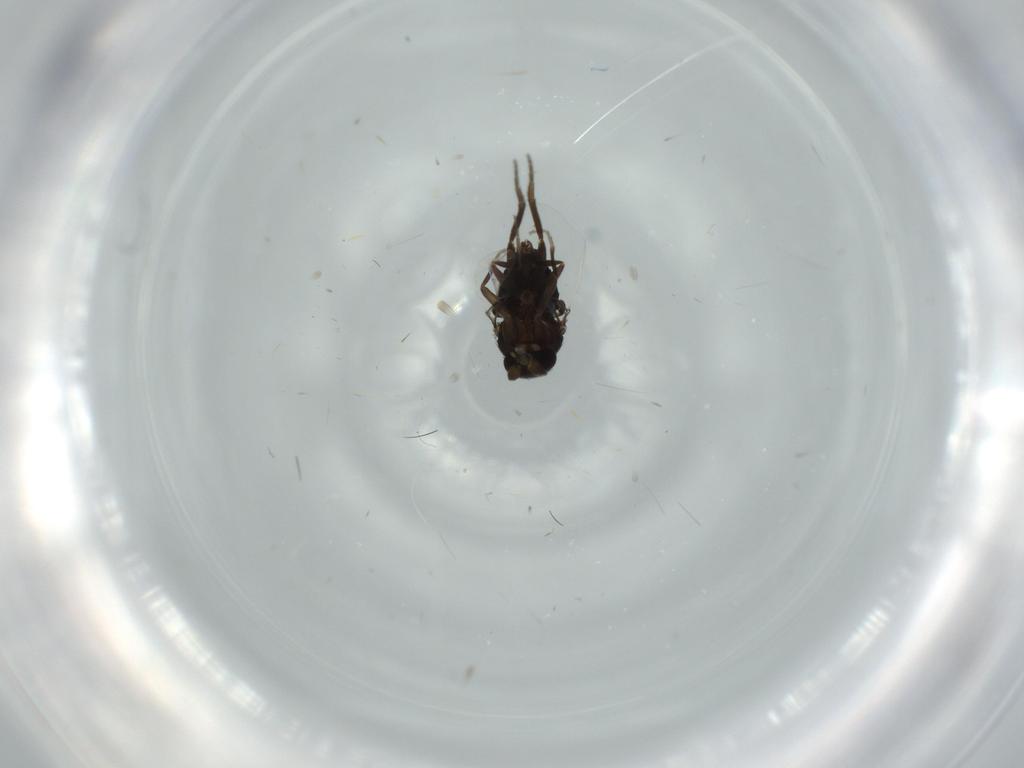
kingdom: Animalia
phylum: Arthropoda
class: Insecta
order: Diptera
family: Phoridae
